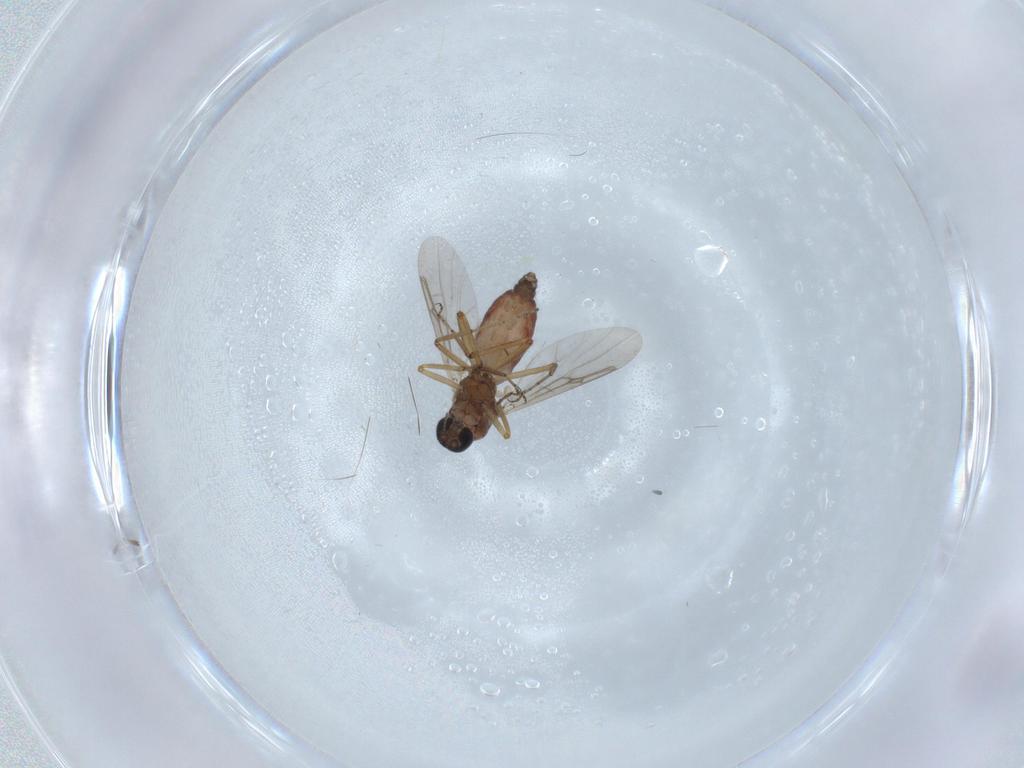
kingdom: Animalia
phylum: Arthropoda
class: Insecta
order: Diptera
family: Ceratopogonidae
